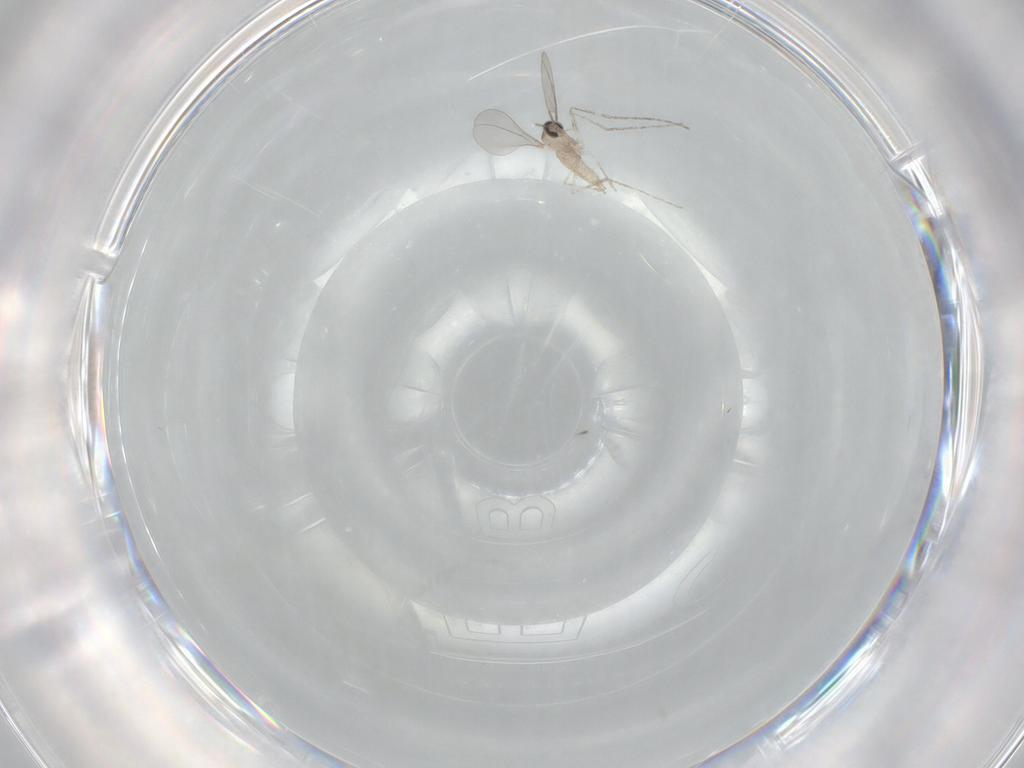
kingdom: Animalia
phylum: Arthropoda
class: Insecta
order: Diptera
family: Cecidomyiidae
